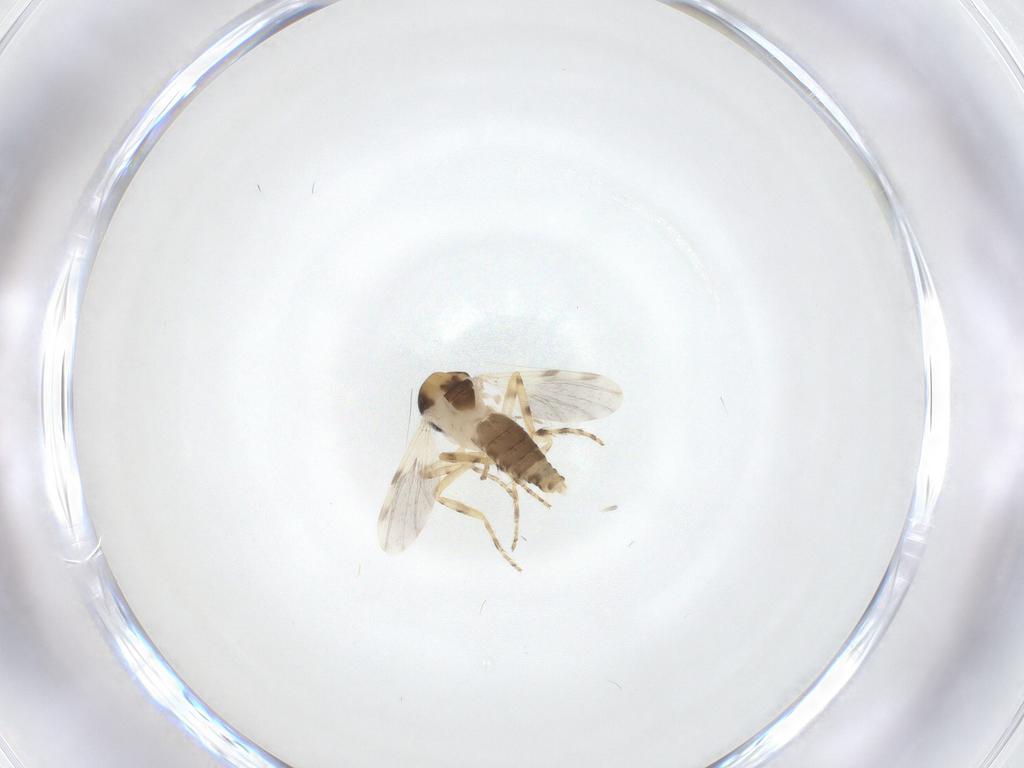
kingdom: Animalia
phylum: Arthropoda
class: Insecta
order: Diptera
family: Ceratopogonidae
